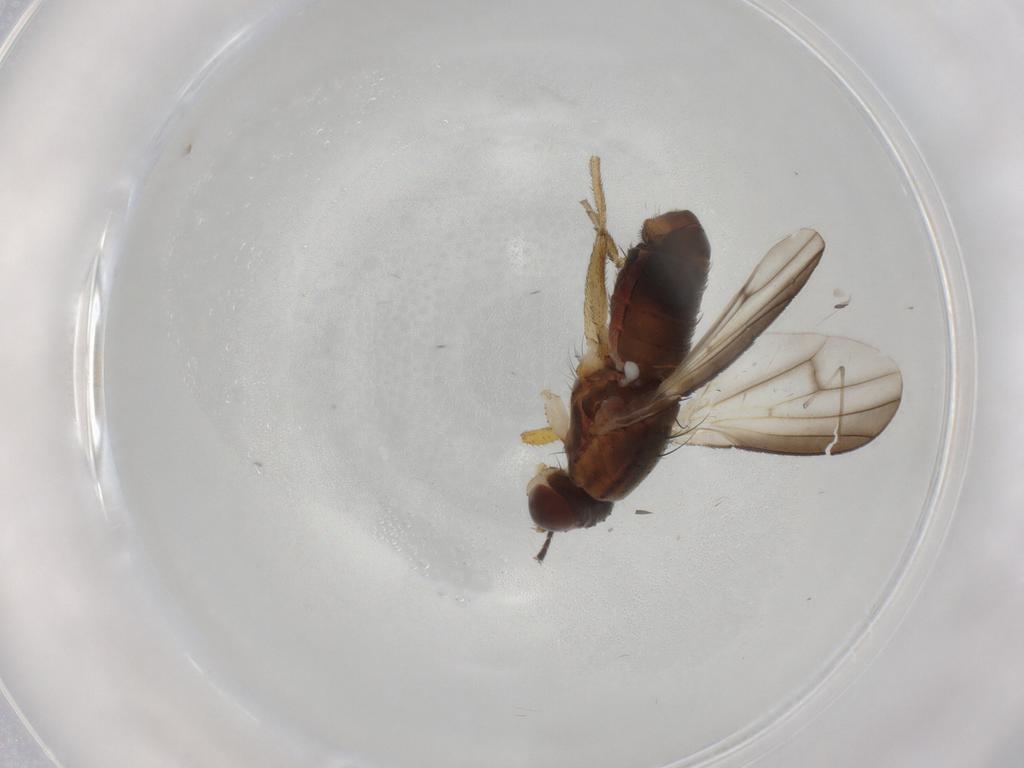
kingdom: Animalia
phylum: Arthropoda
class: Insecta
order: Diptera
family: Heleomyzidae
